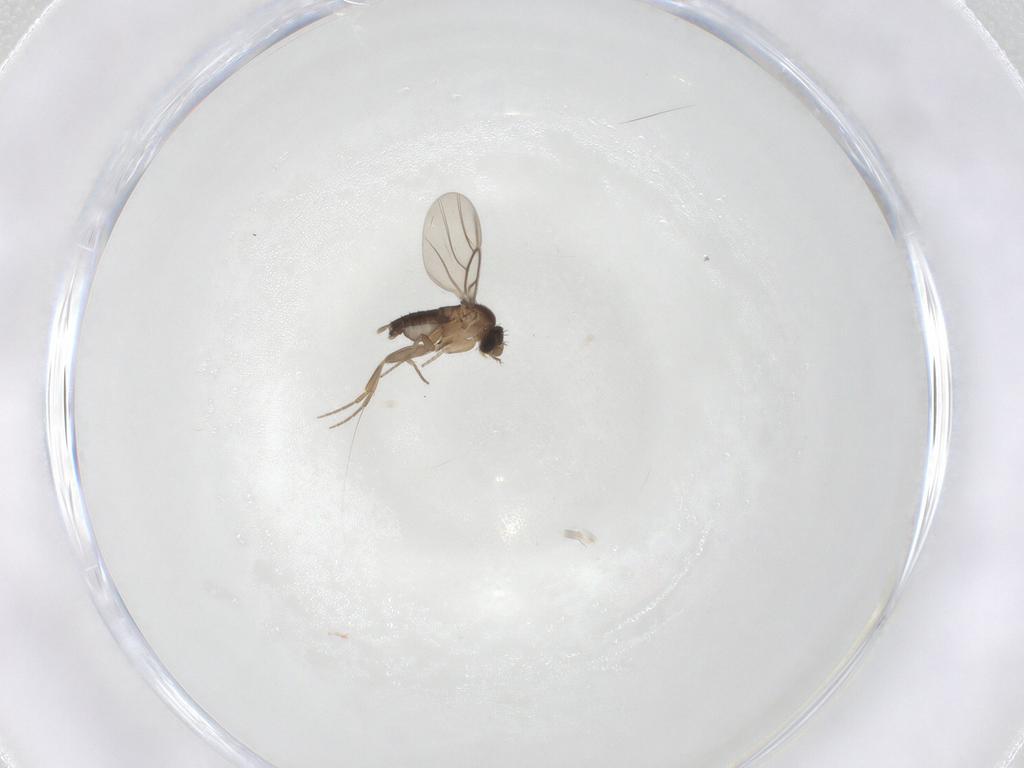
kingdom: Animalia
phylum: Arthropoda
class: Insecta
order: Diptera
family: Phoridae
